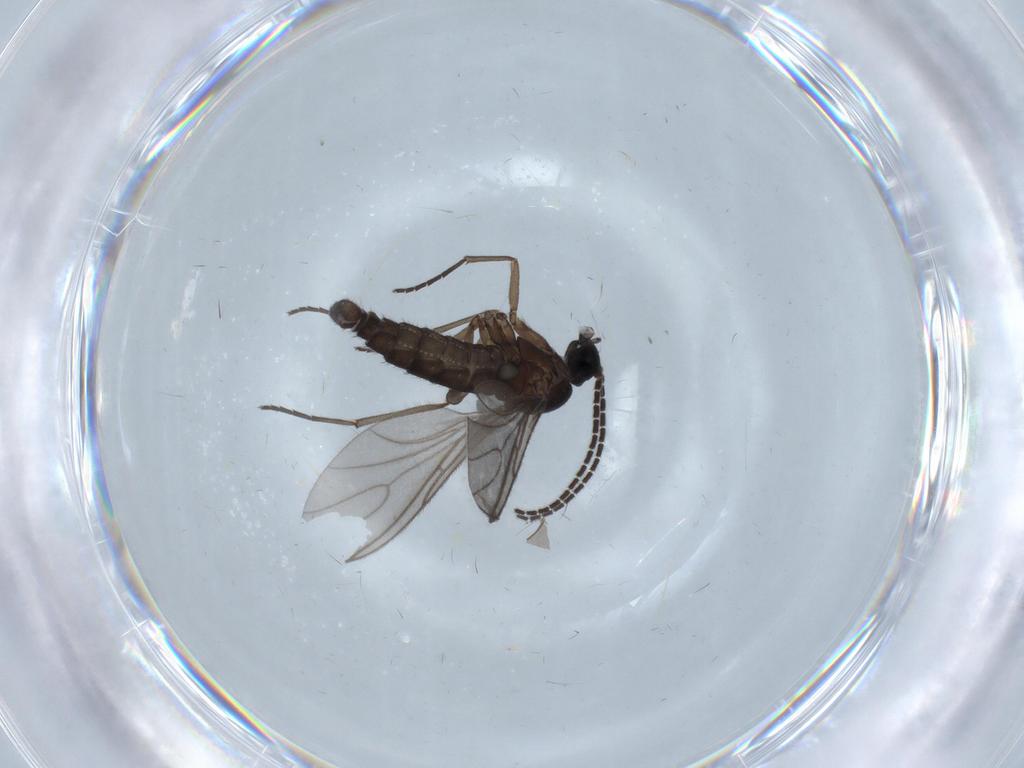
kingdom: Animalia
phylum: Arthropoda
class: Insecta
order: Diptera
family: Sciaridae
